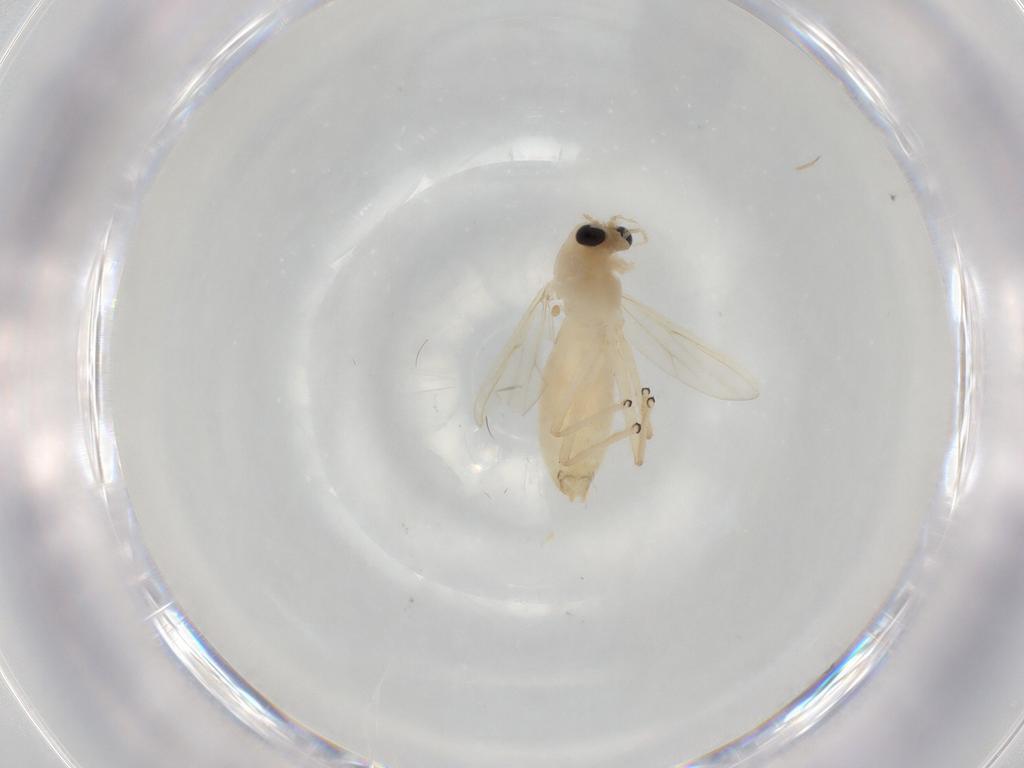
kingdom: Animalia
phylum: Arthropoda
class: Insecta
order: Diptera
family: Chironomidae
